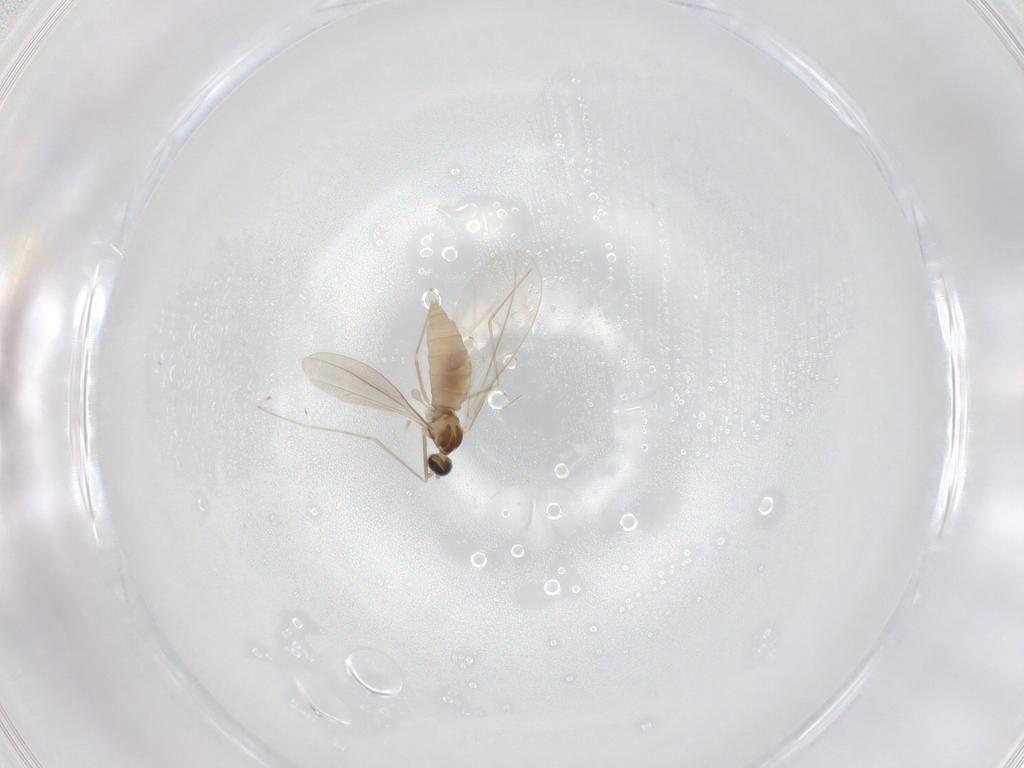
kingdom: Animalia
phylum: Arthropoda
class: Insecta
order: Diptera
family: Cecidomyiidae
